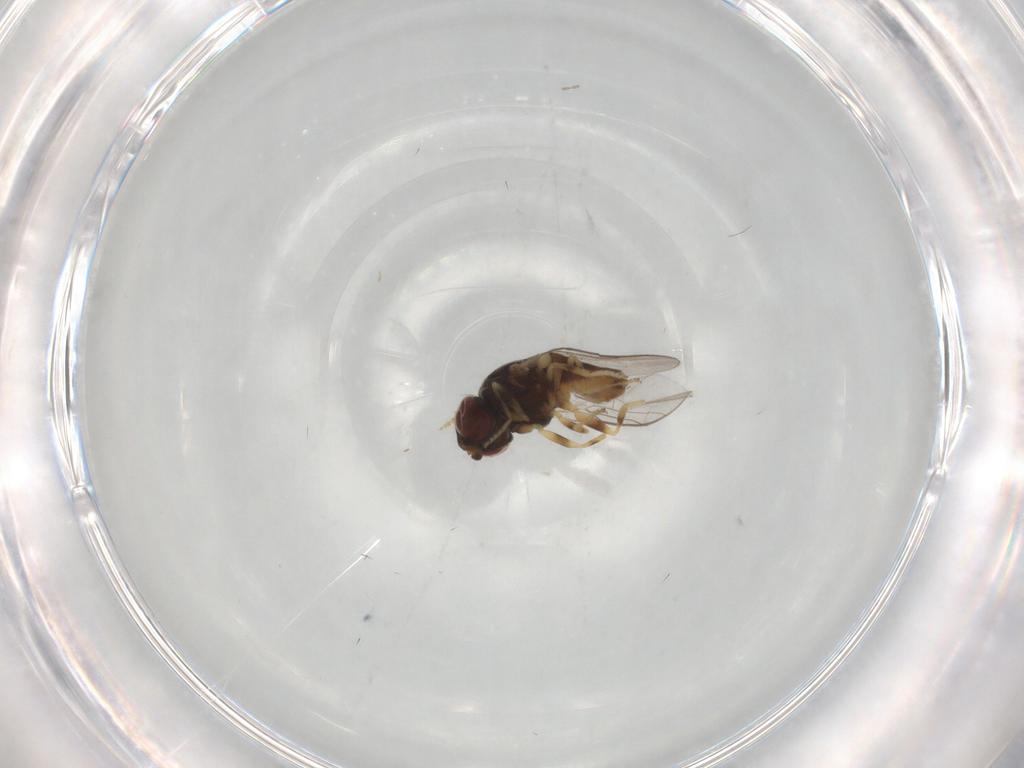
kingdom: Animalia
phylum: Arthropoda
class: Insecta
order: Diptera
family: Chloropidae
